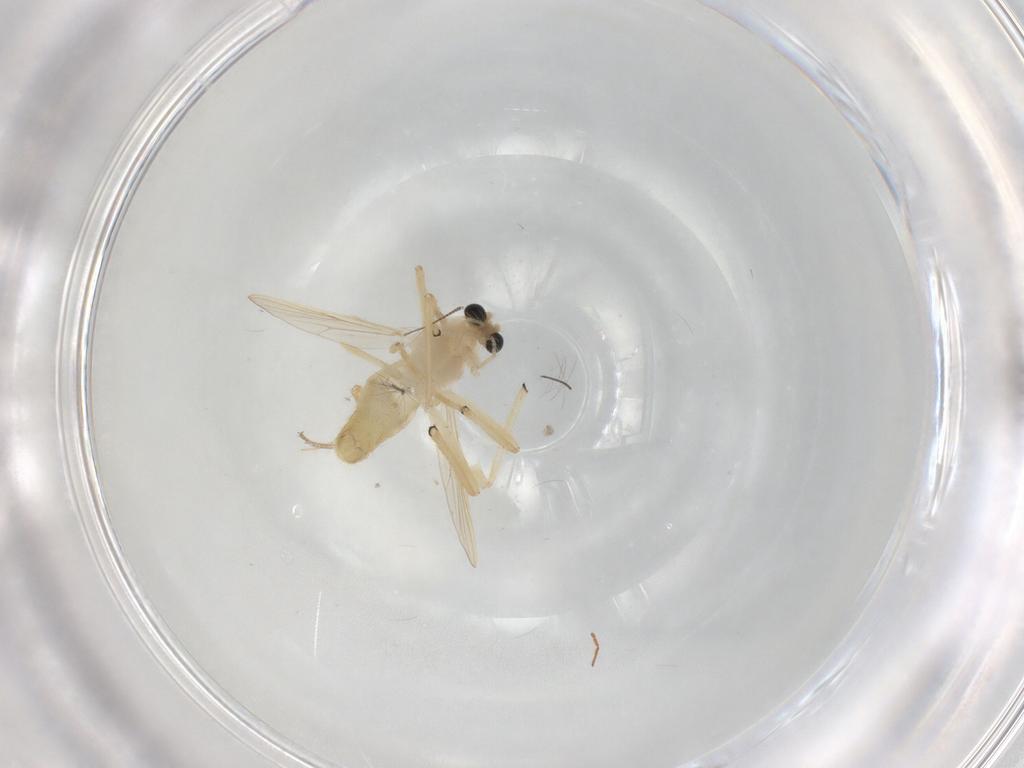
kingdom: Animalia
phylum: Arthropoda
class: Insecta
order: Diptera
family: Chironomidae
